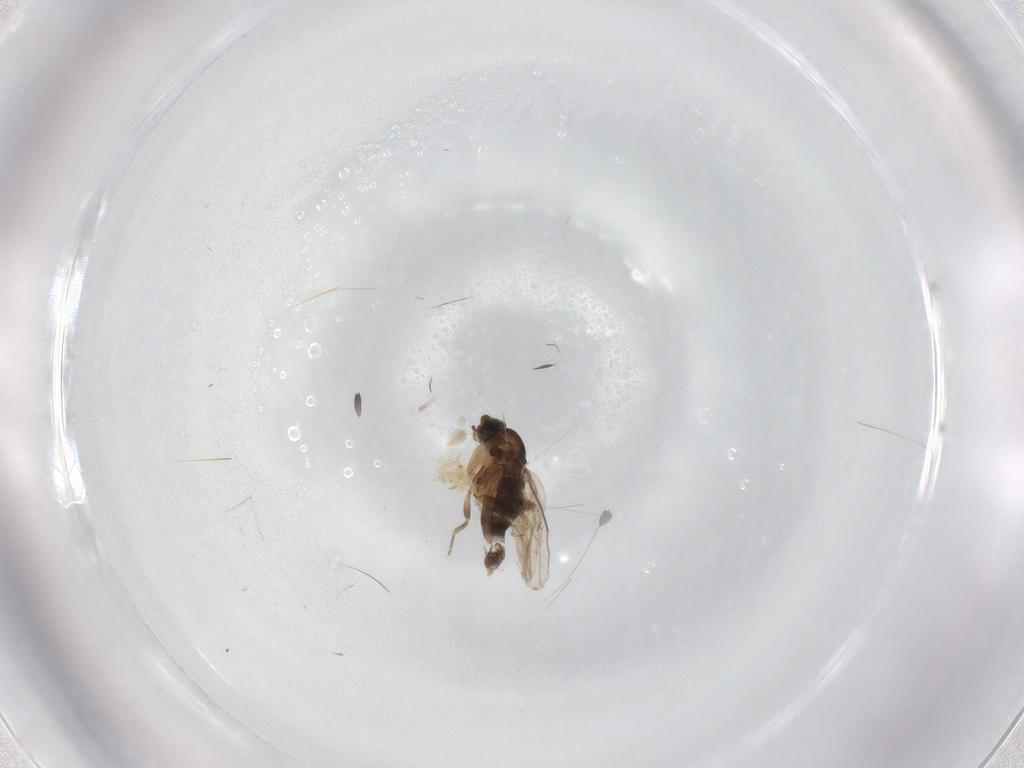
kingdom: Animalia
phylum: Arthropoda
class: Insecta
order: Diptera
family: Phoridae
